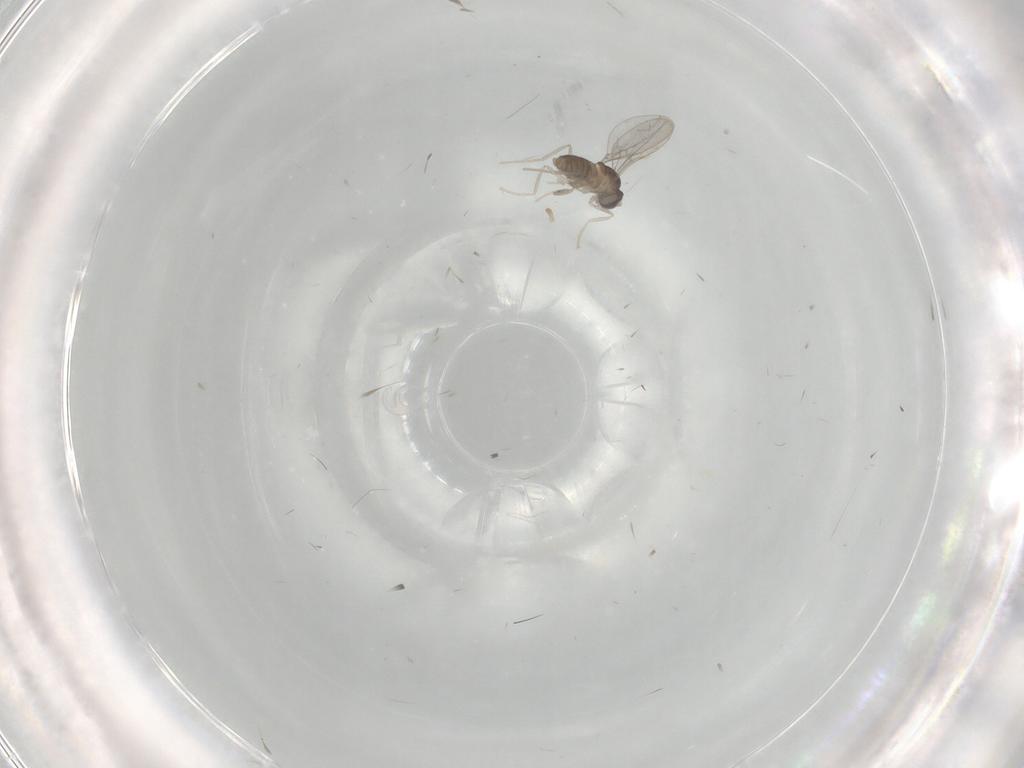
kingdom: Animalia
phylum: Arthropoda
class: Insecta
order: Diptera
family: Cecidomyiidae
